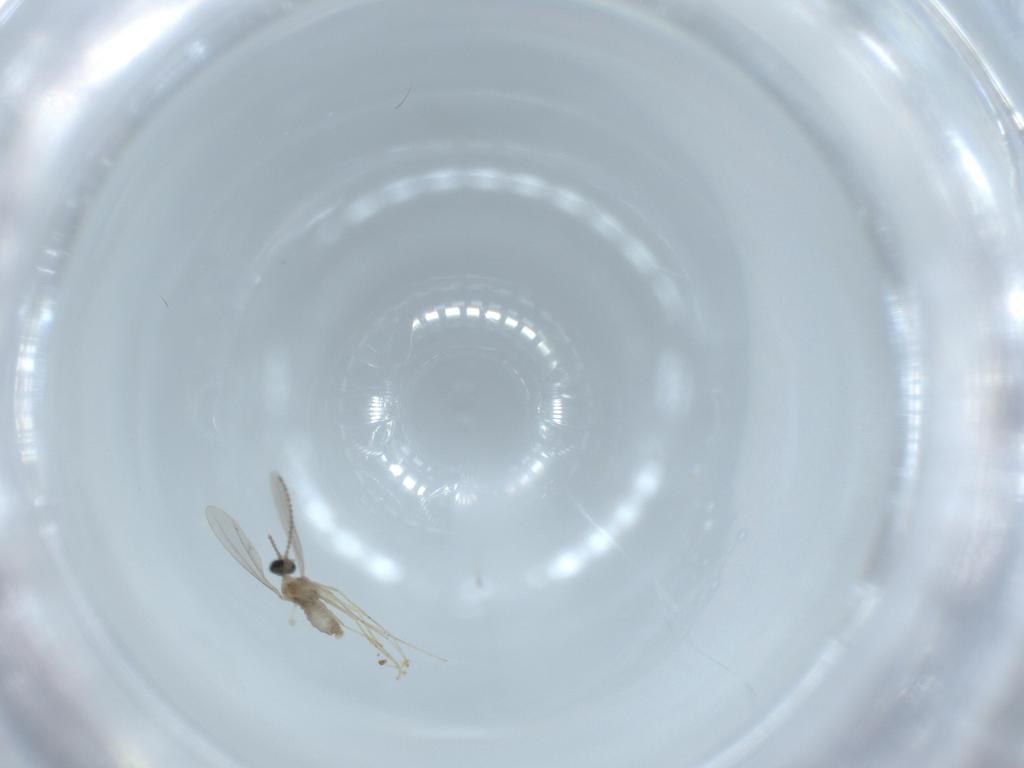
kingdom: Animalia
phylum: Arthropoda
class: Insecta
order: Diptera
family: Cecidomyiidae
